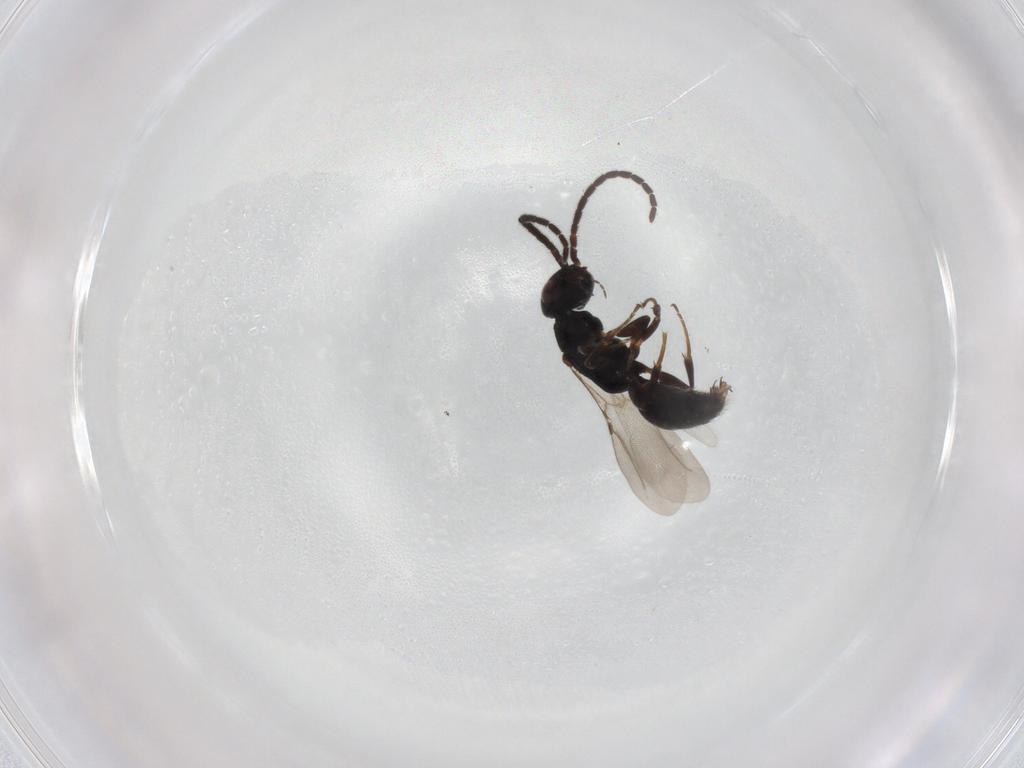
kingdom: Animalia
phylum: Arthropoda
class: Insecta
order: Hymenoptera
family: Bethylidae
